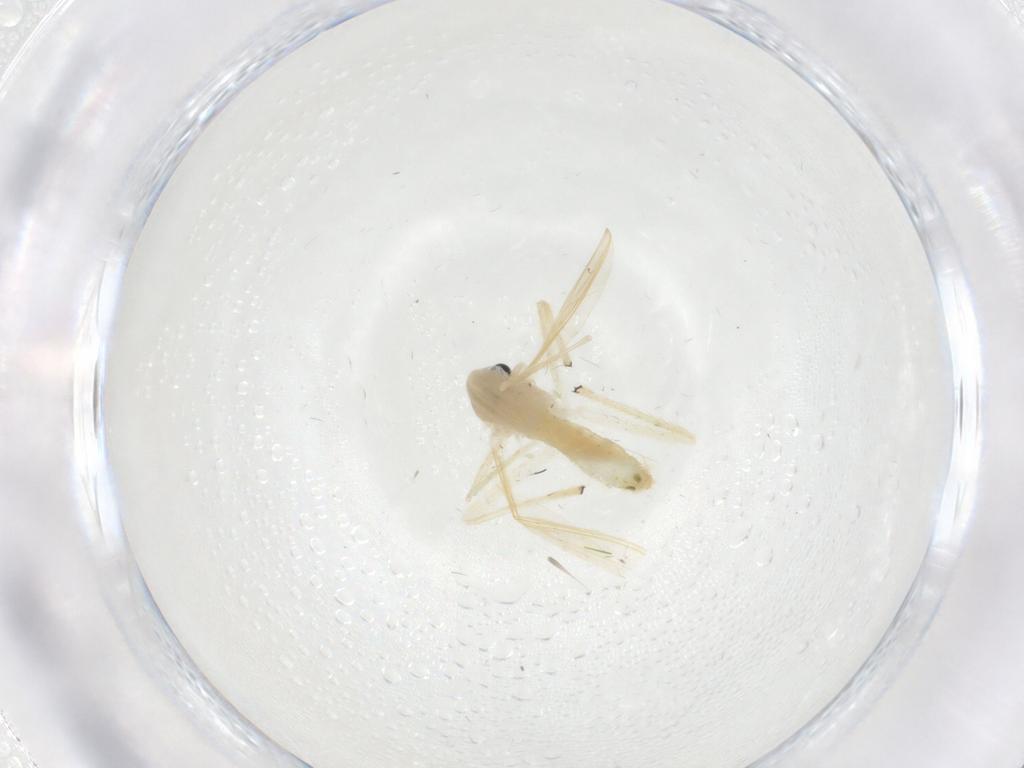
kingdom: Animalia
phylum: Arthropoda
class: Insecta
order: Diptera
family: Chironomidae
